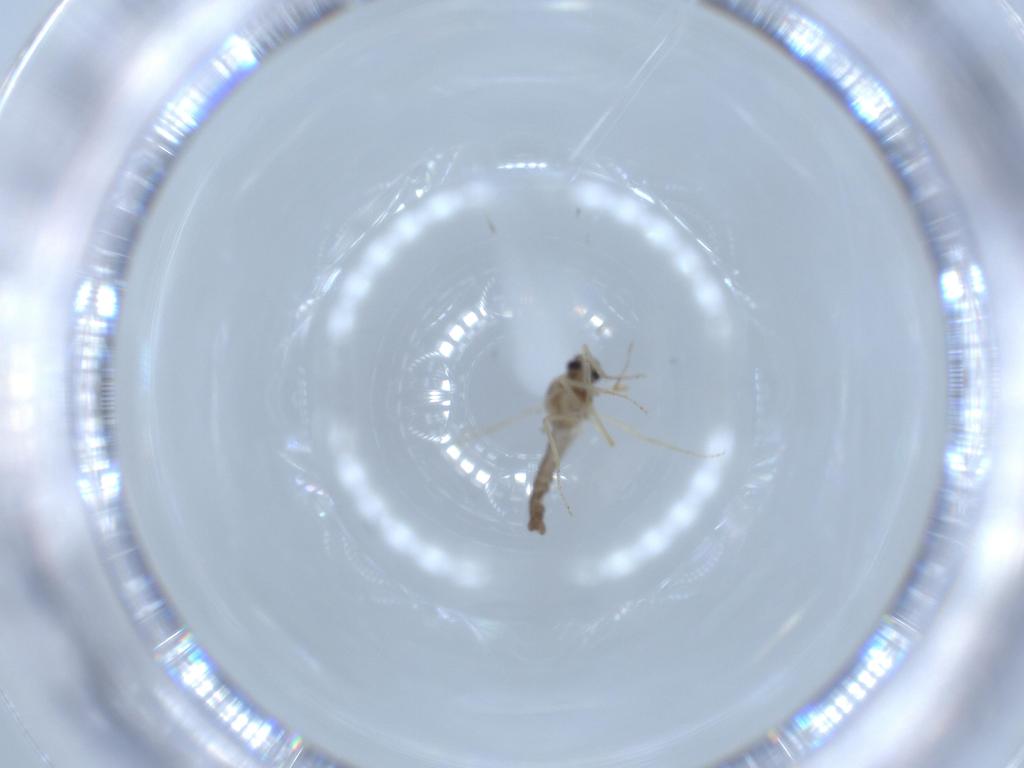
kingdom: Animalia
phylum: Arthropoda
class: Insecta
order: Diptera
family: Ceratopogonidae
